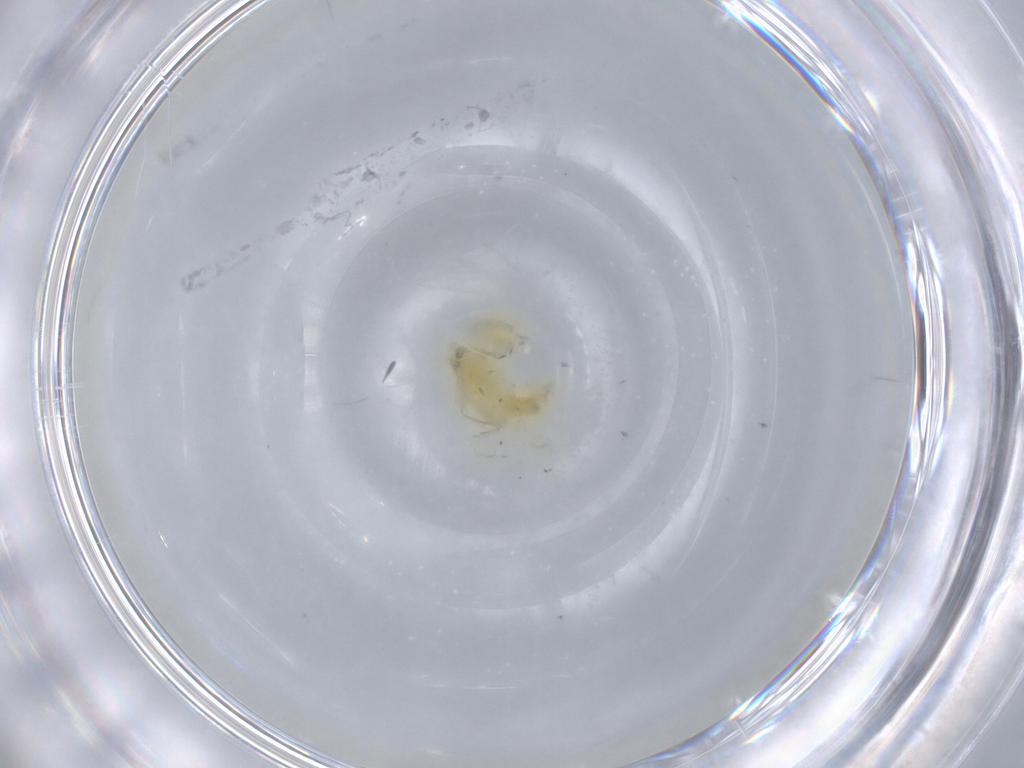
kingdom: Animalia
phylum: Arthropoda
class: Insecta
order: Hemiptera
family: Cicadellidae
